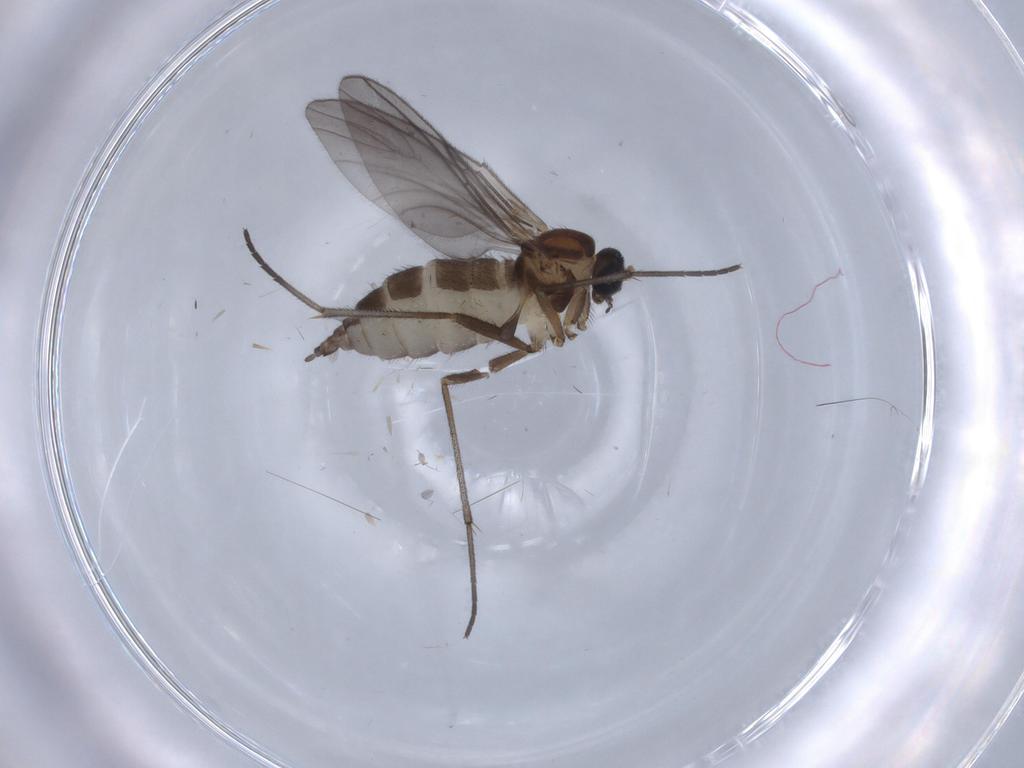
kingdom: Animalia
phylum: Arthropoda
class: Insecta
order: Diptera
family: Sciaridae
